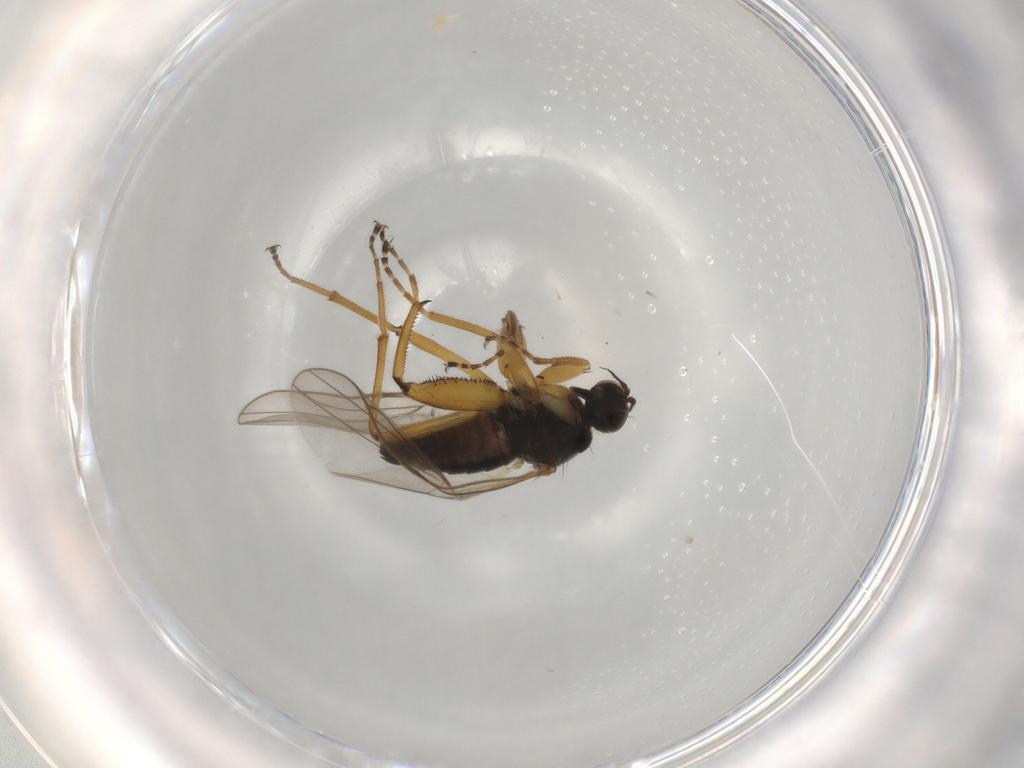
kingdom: Animalia
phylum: Arthropoda
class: Insecta
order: Diptera
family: Hybotidae
